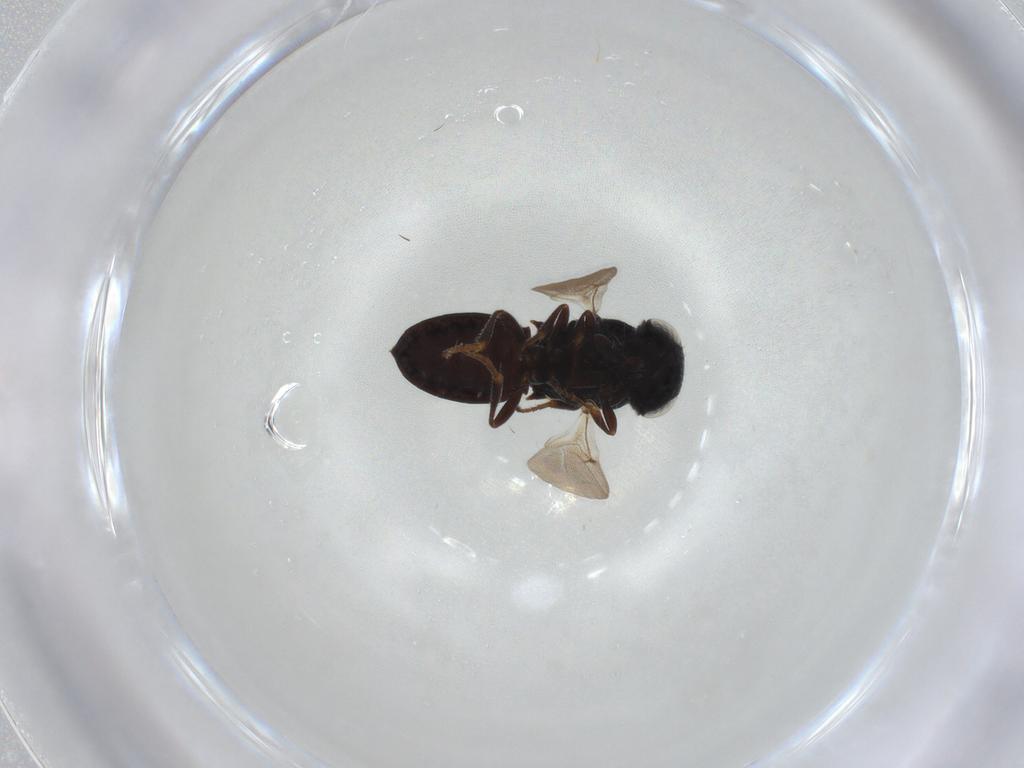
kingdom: Animalia
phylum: Arthropoda
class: Insecta
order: Hymenoptera
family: Scelionidae
